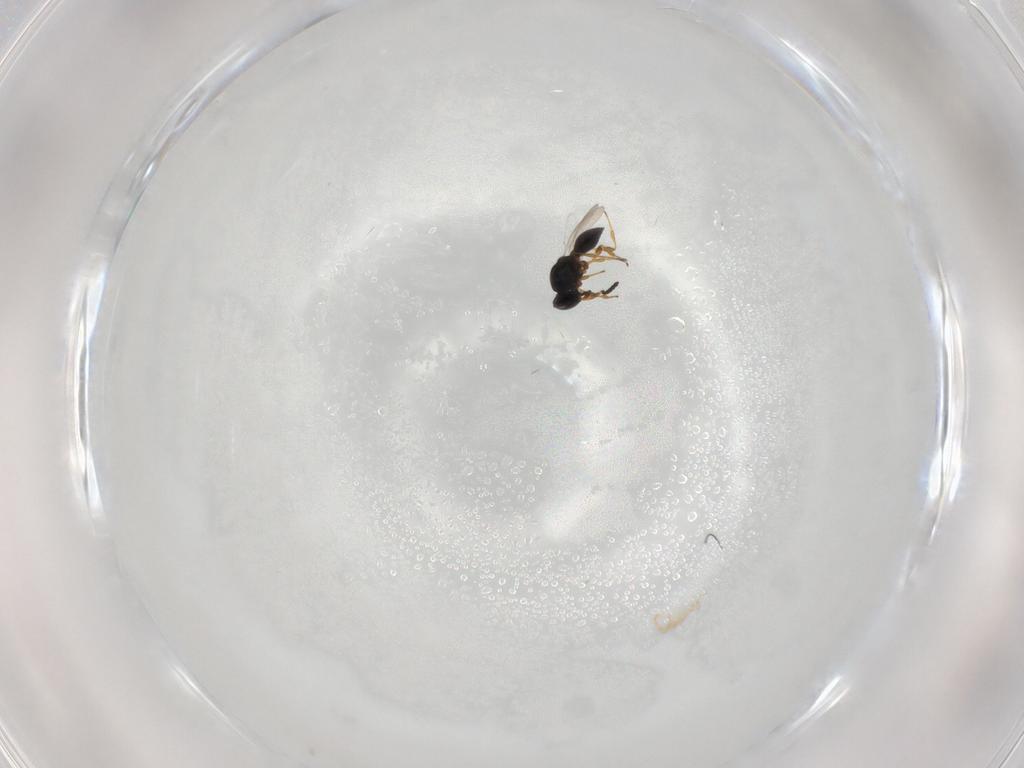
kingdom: Animalia
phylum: Arthropoda
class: Insecta
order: Hymenoptera
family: Platygastridae
